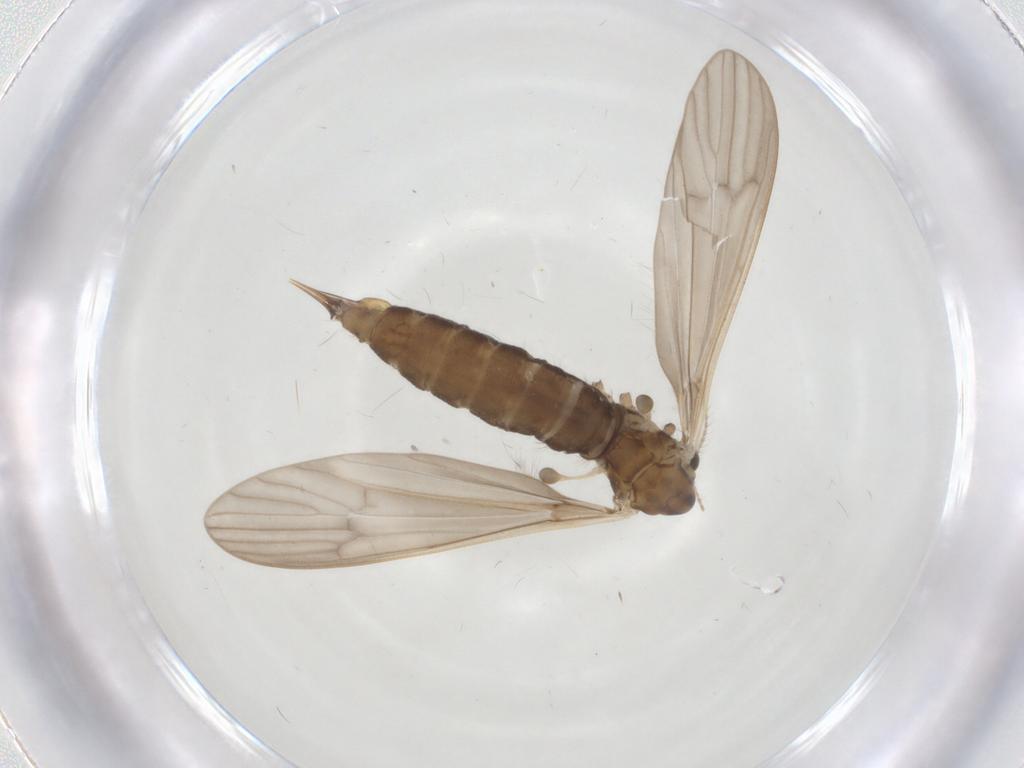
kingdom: Animalia
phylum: Arthropoda
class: Insecta
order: Diptera
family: Limoniidae
